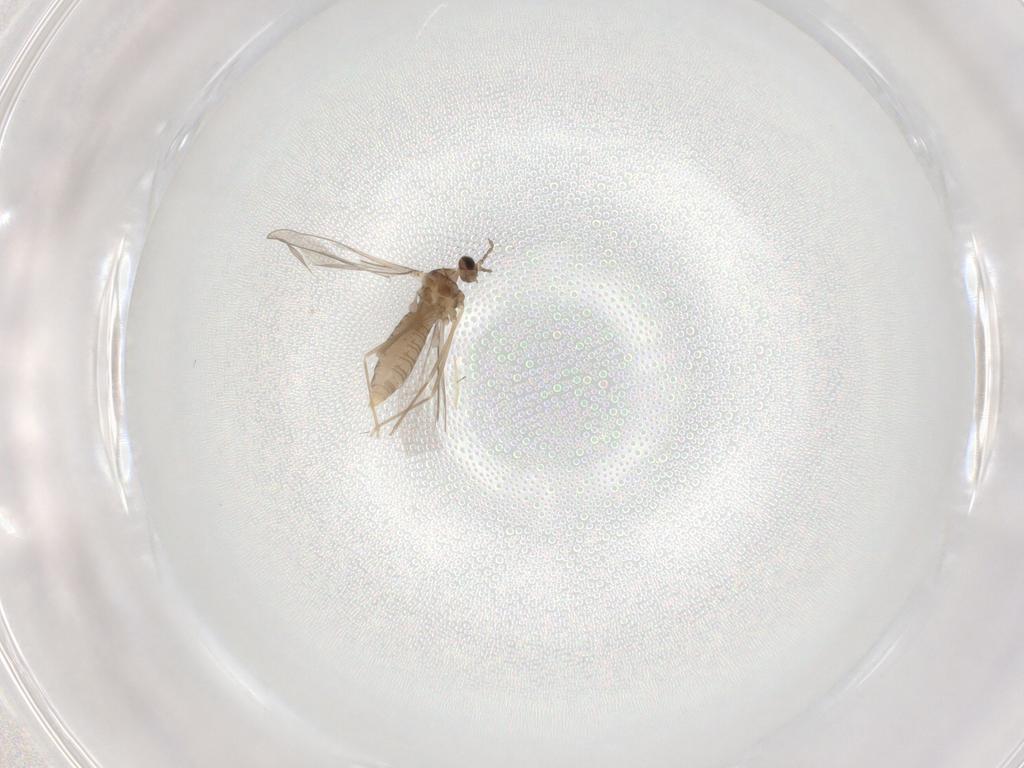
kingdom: Animalia
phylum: Arthropoda
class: Insecta
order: Diptera
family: Cecidomyiidae
